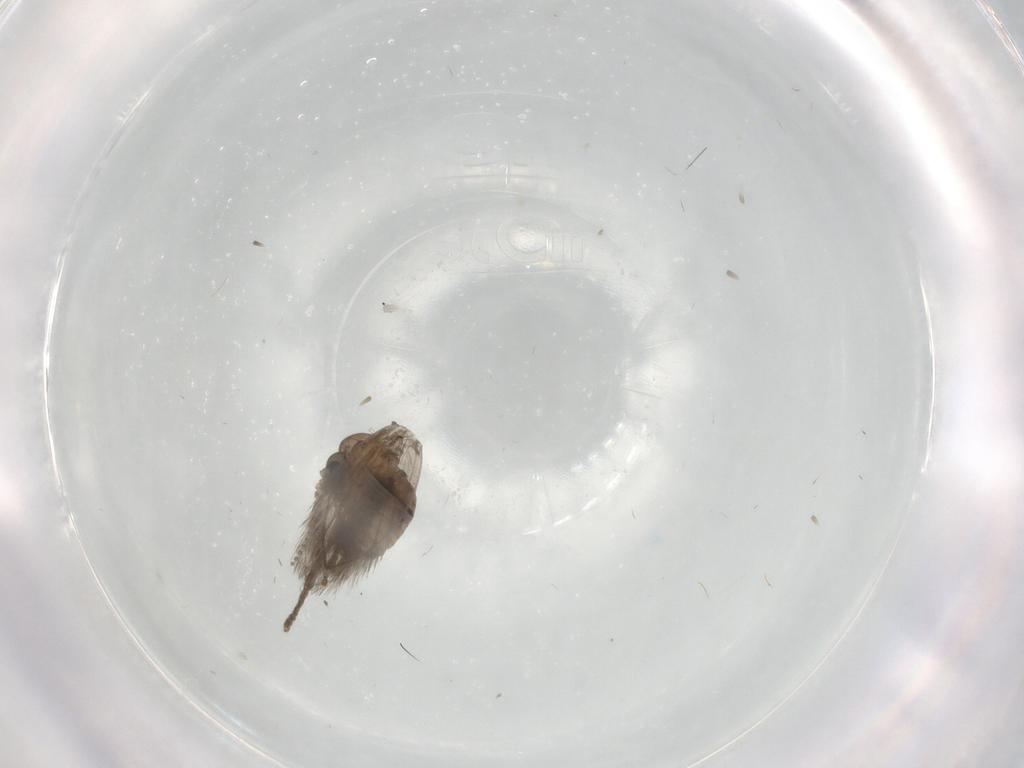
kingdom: Animalia
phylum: Arthropoda
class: Insecta
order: Diptera
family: Psychodidae
